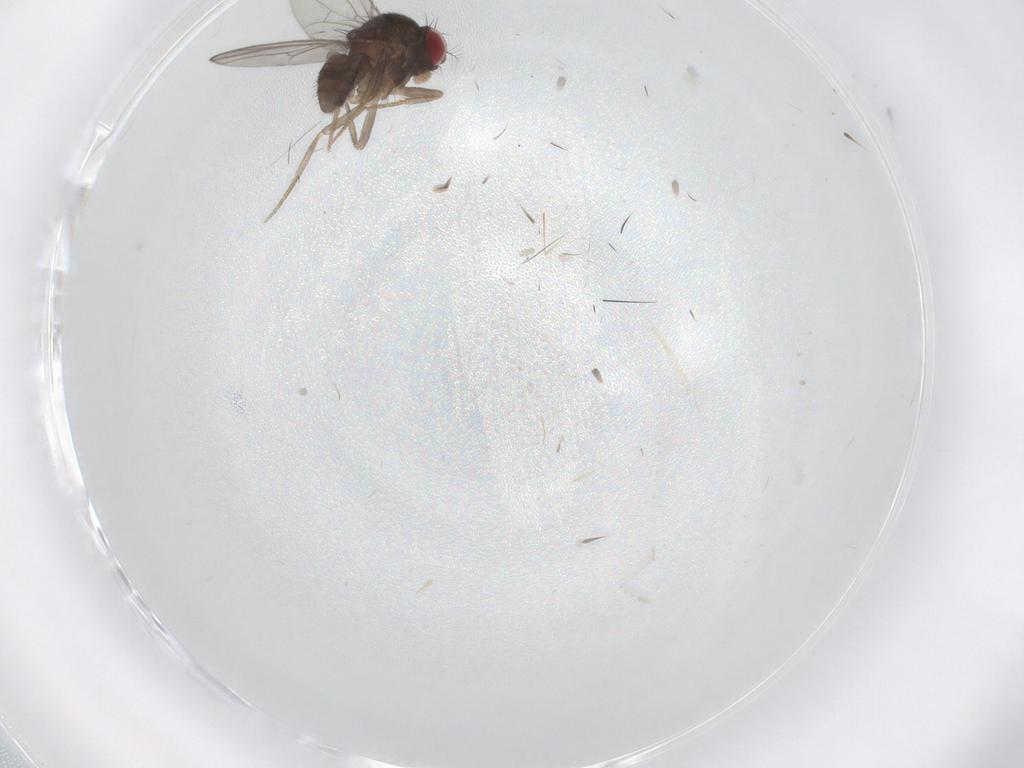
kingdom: Animalia
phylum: Arthropoda
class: Insecta
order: Diptera
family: Drosophilidae
